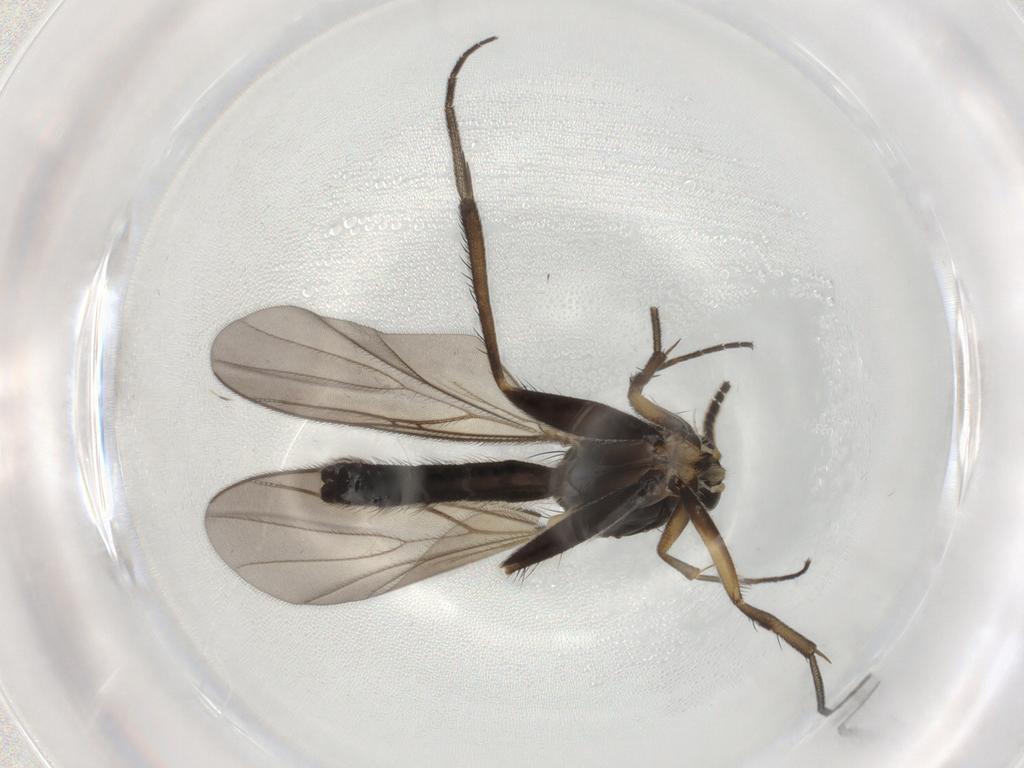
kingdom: Animalia
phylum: Arthropoda
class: Insecta
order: Diptera
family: Mycetophilidae
